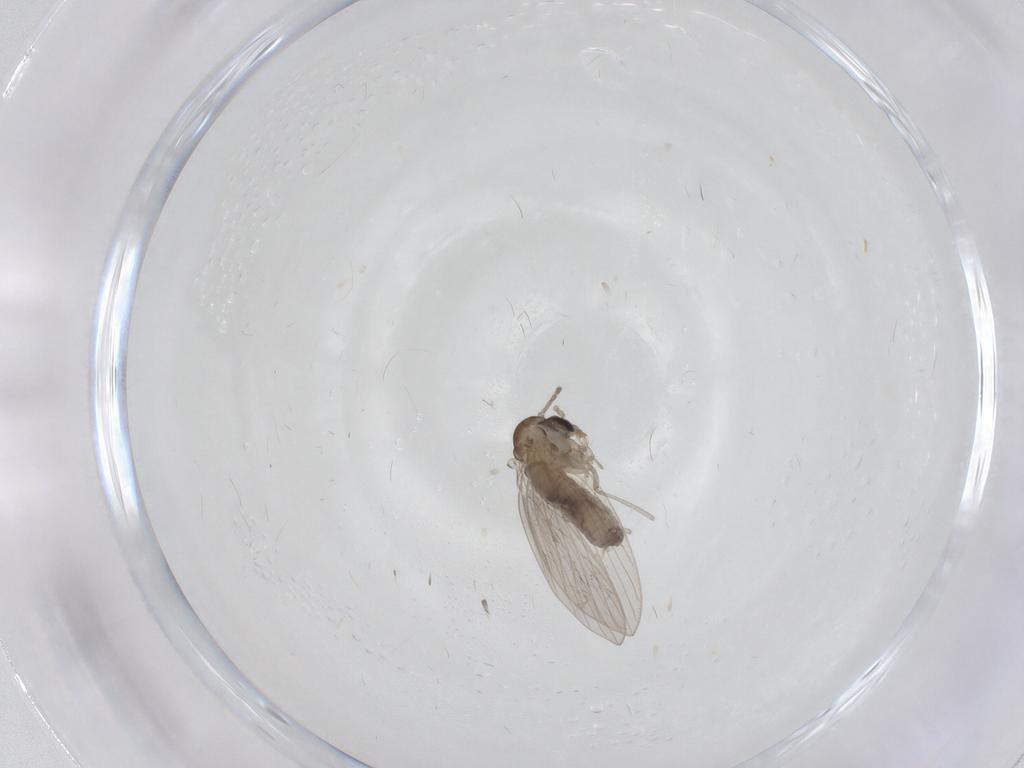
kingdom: Animalia
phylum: Arthropoda
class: Insecta
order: Diptera
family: Psychodidae
